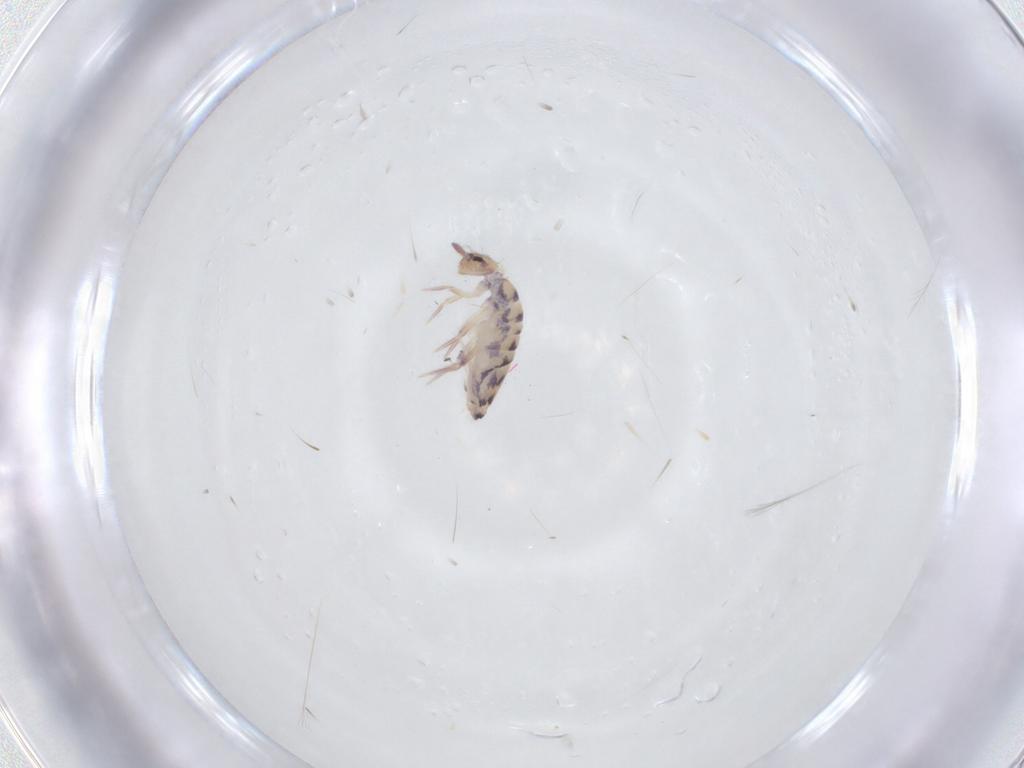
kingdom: Animalia
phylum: Arthropoda
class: Collembola
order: Entomobryomorpha
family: Entomobryidae
